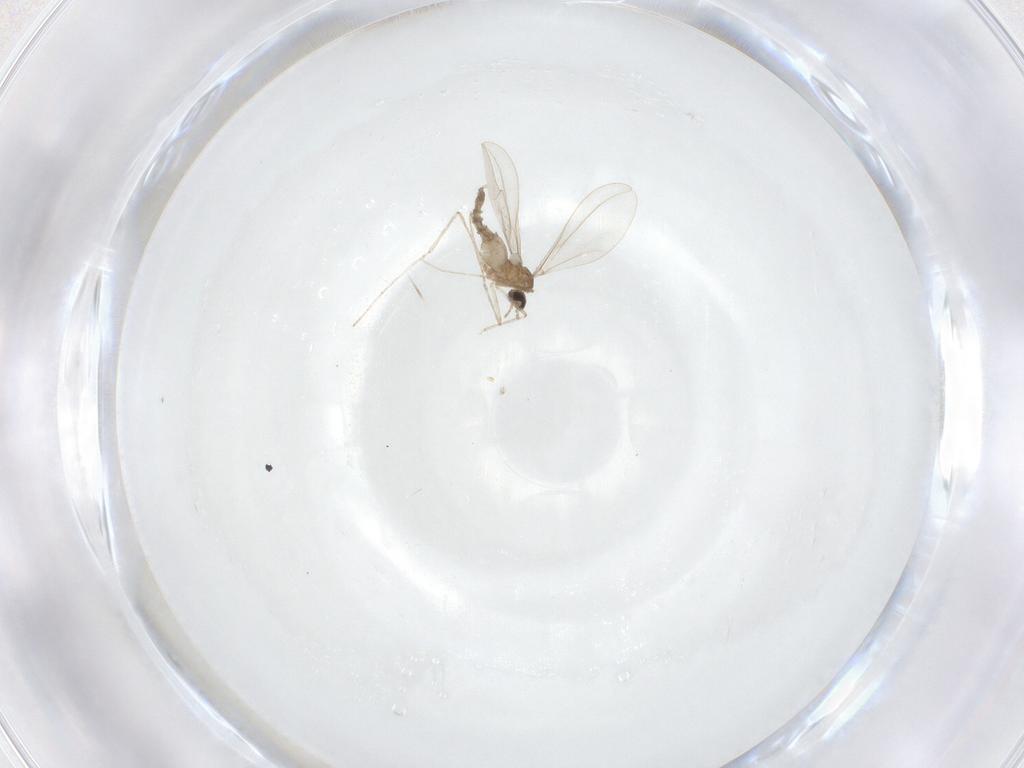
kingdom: Animalia
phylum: Arthropoda
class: Insecta
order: Diptera
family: Cecidomyiidae
